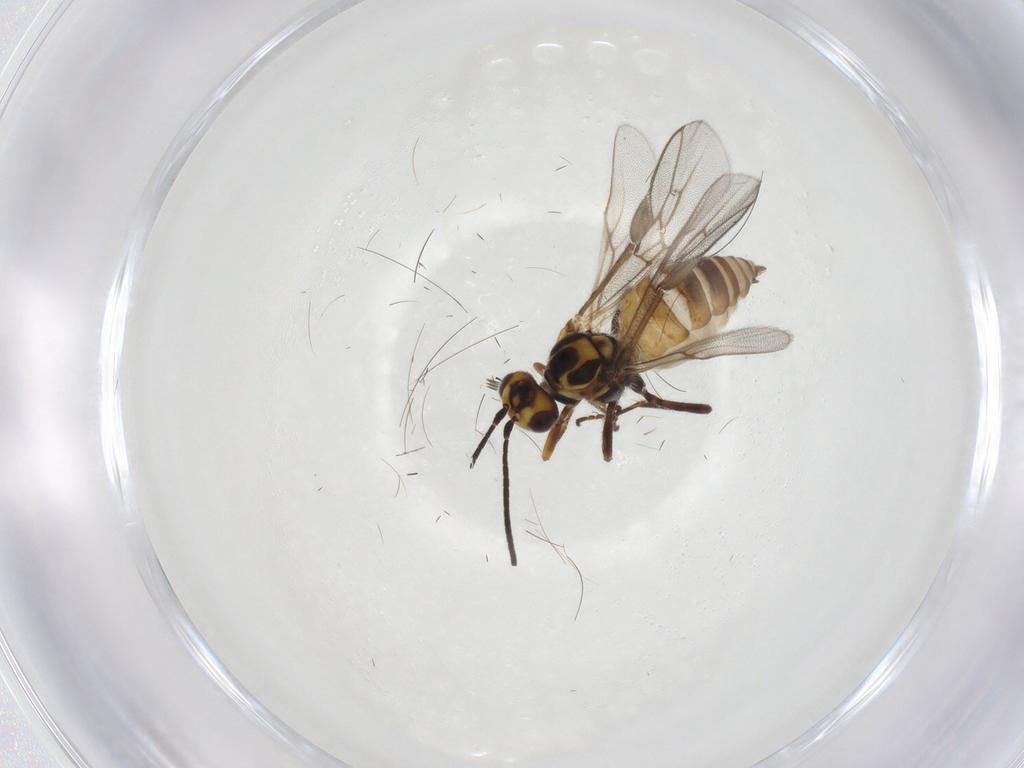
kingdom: Animalia
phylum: Arthropoda
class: Insecta
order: Hymenoptera
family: Braconidae
